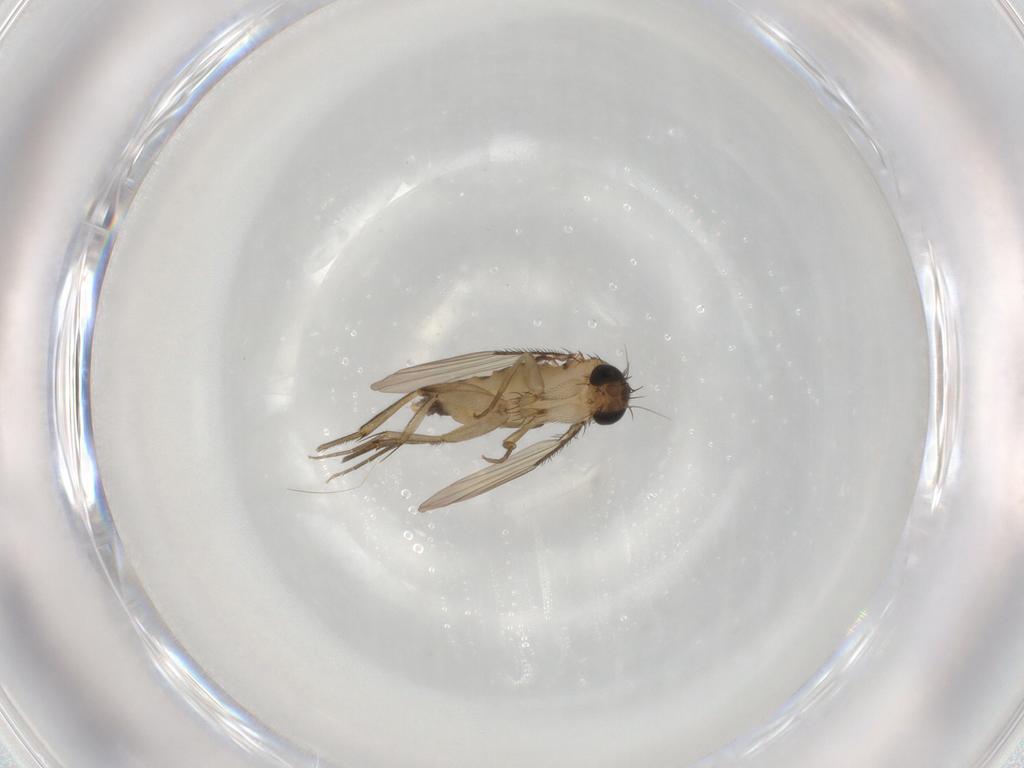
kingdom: Animalia
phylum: Arthropoda
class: Insecta
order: Diptera
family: Phoridae
